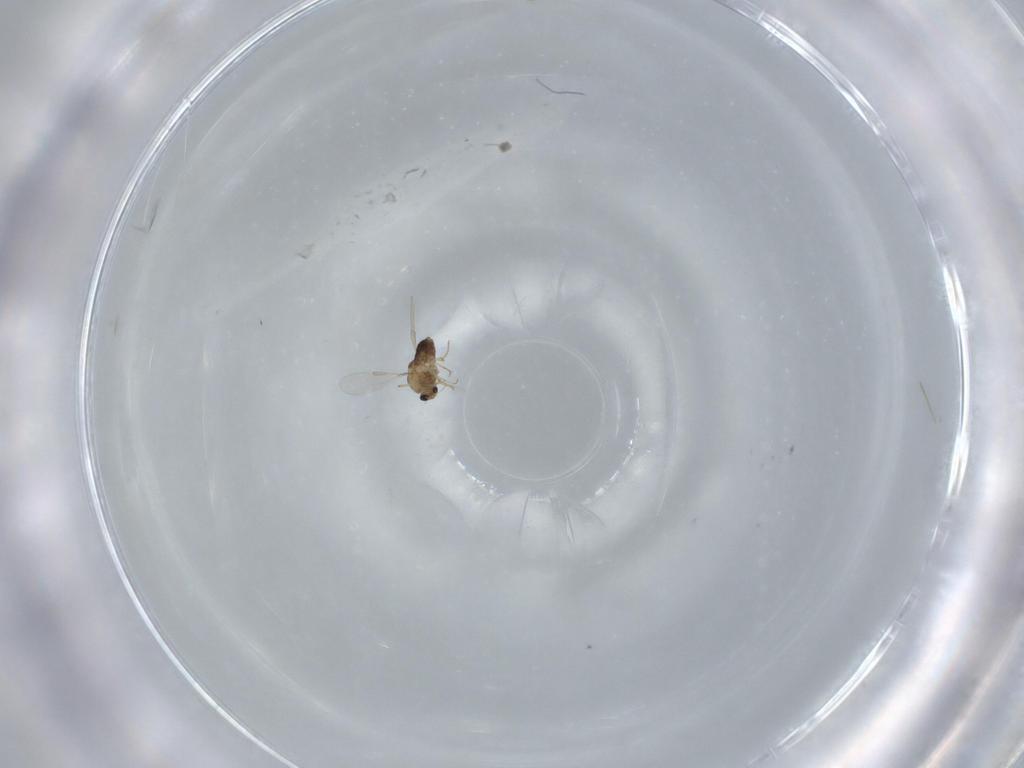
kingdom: Animalia
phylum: Arthropoda
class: Insecta
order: Diptera
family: Chironomidae
